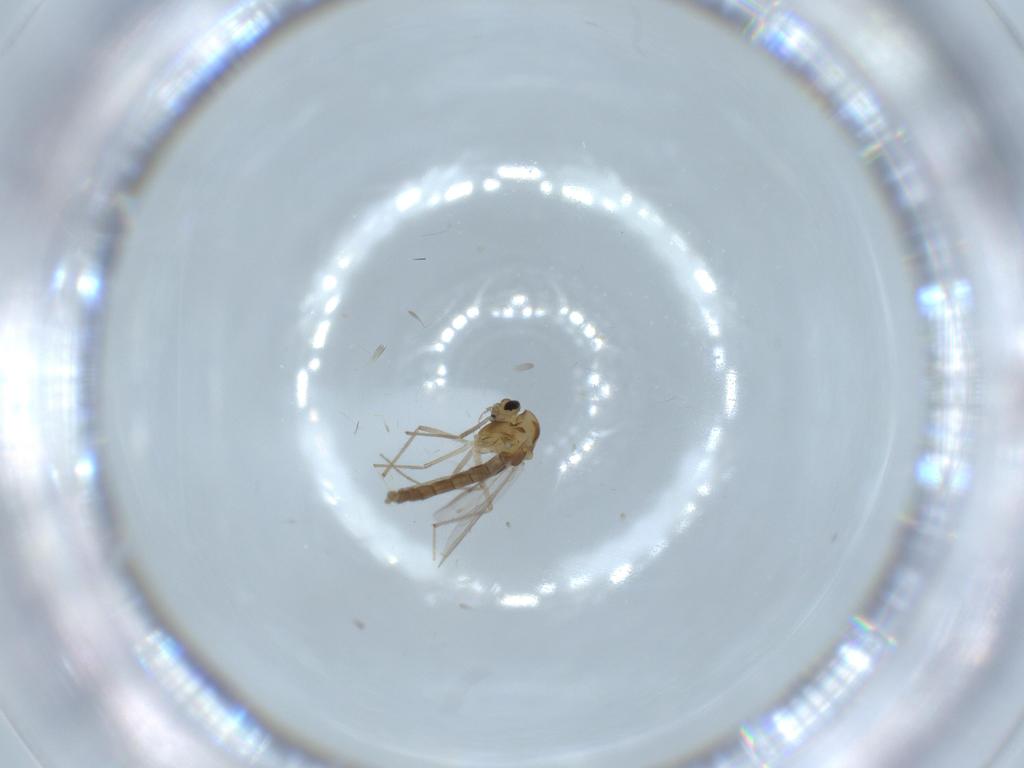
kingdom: Animalia
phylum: Arthropoda
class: Insecta
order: Diptera
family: Chironomidae
